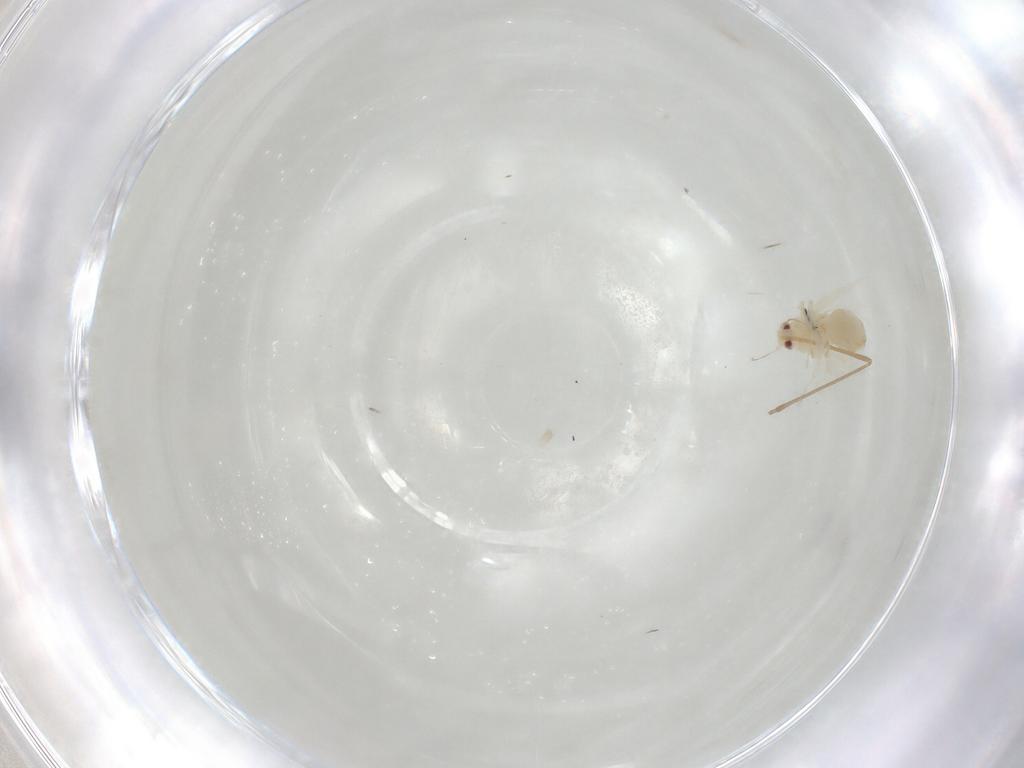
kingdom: Animalia
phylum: Arthropoda
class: Insecta
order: Hemiptera
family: Aleyrodidae
